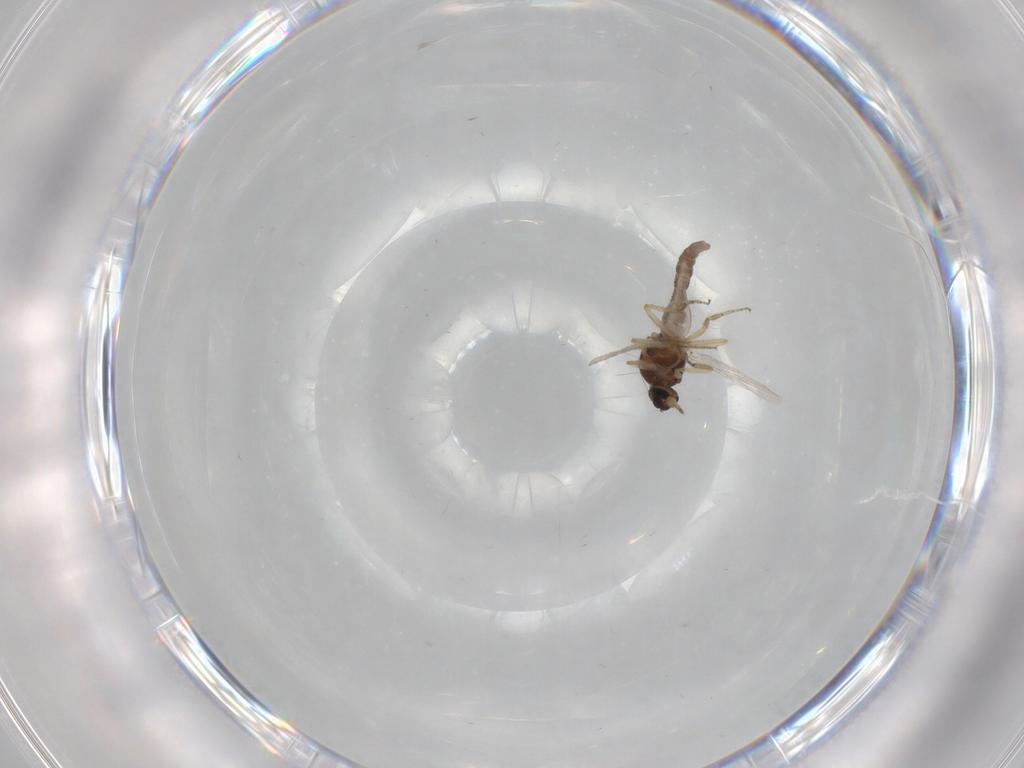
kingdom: Animalia
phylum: Arthropoda
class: Insecta
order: Diptera
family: Ceratopogonidae
